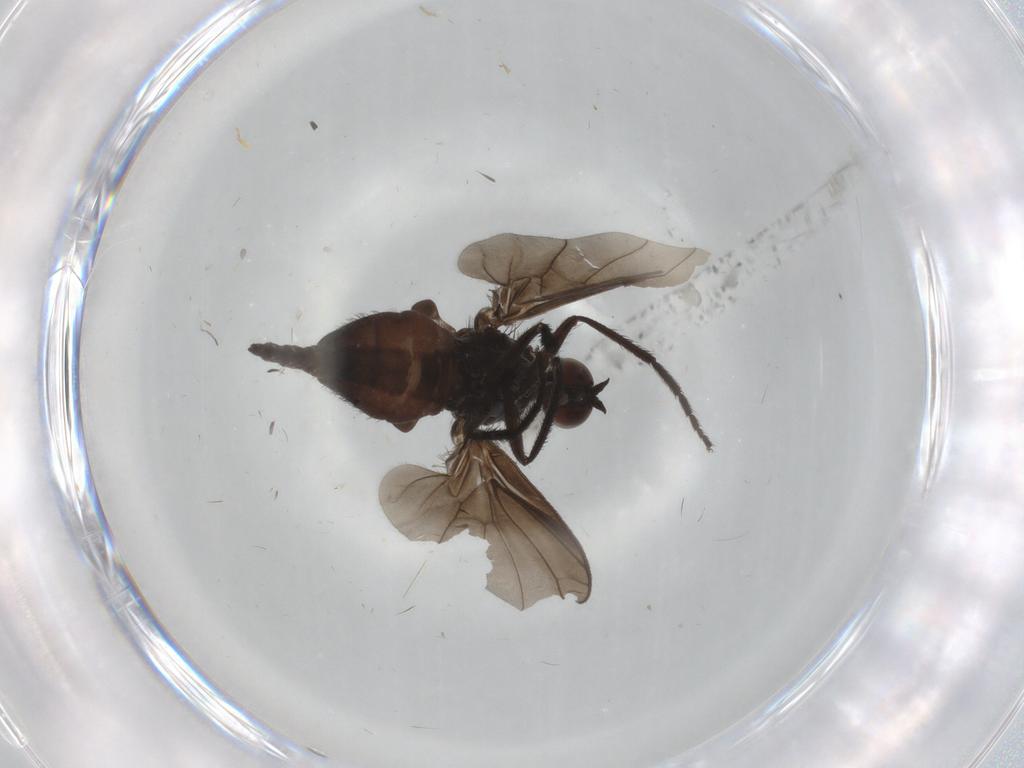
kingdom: Animalia
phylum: Arthropoda
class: Insecta
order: Diptera
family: Empididae
